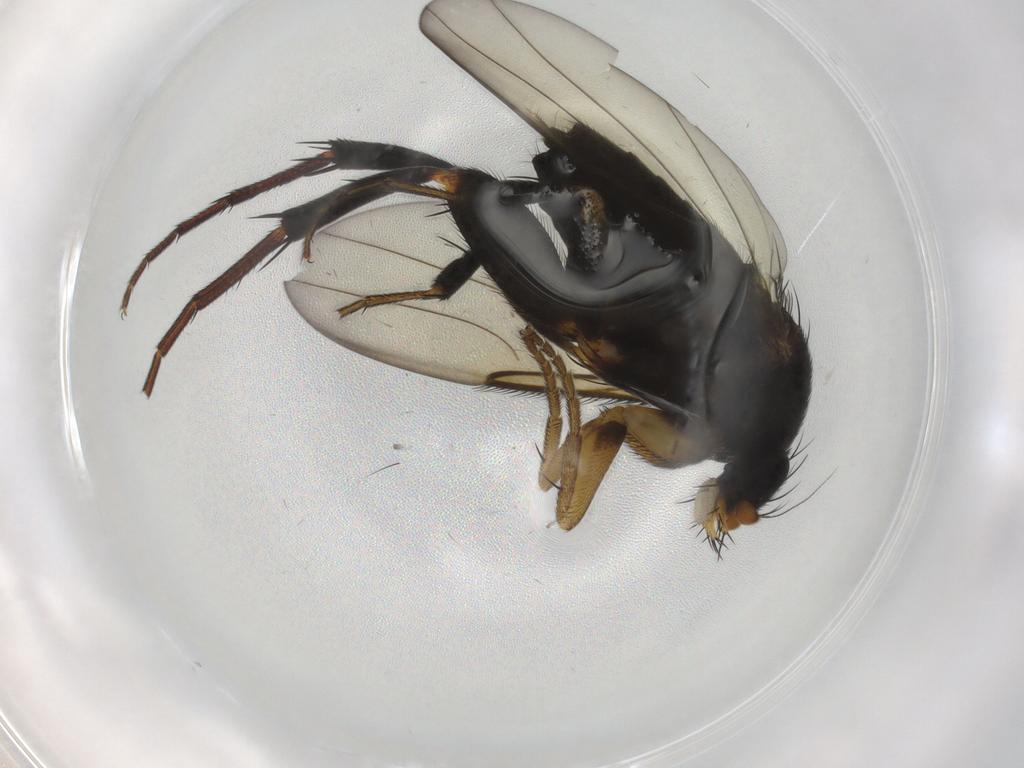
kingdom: Animalia
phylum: Arthropoda
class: Insecta
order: Diptera
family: Phoridae
